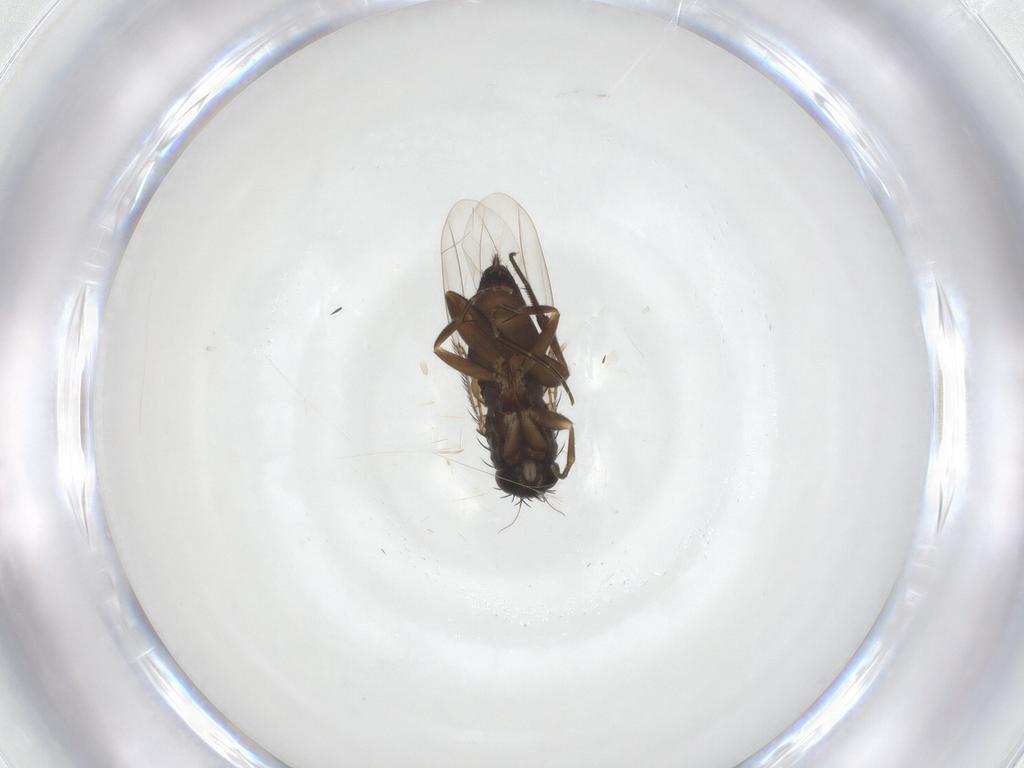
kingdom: Animalia
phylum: Arthropoda
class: Insecta
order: Diptera
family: Phoridae
